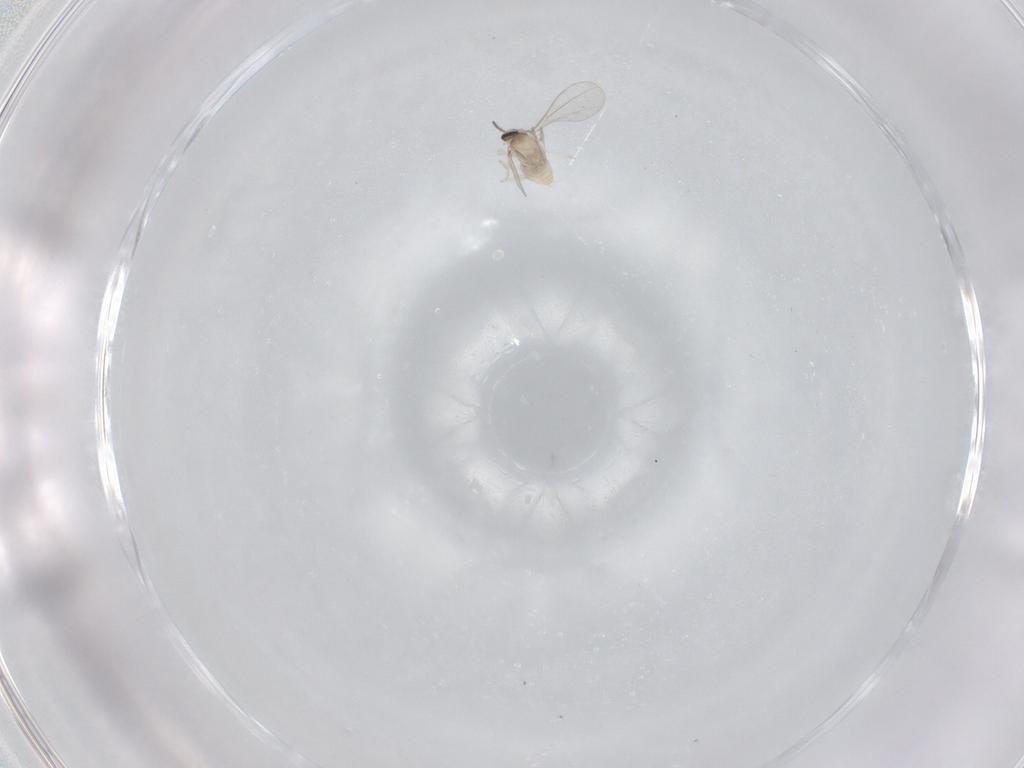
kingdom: Animalia
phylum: Arthropoda
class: Insecta
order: Diptera
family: Cecidomyiidae
